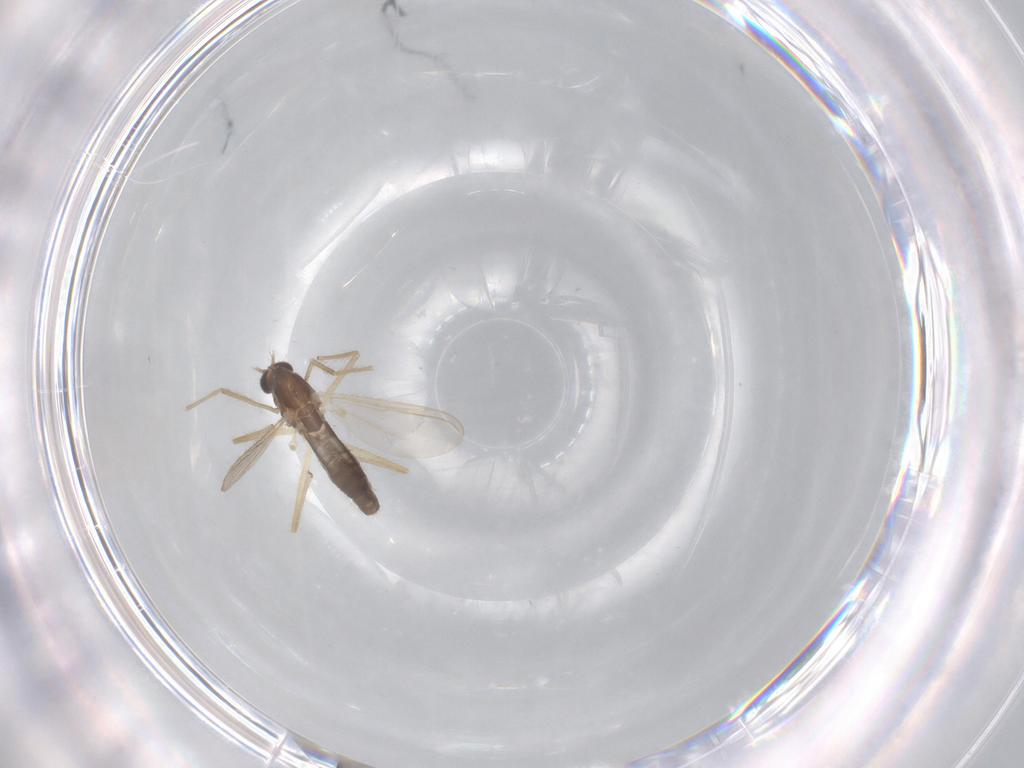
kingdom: Animalia
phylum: Arthropoda
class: Insecta
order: Diptera
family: Chironomidae
